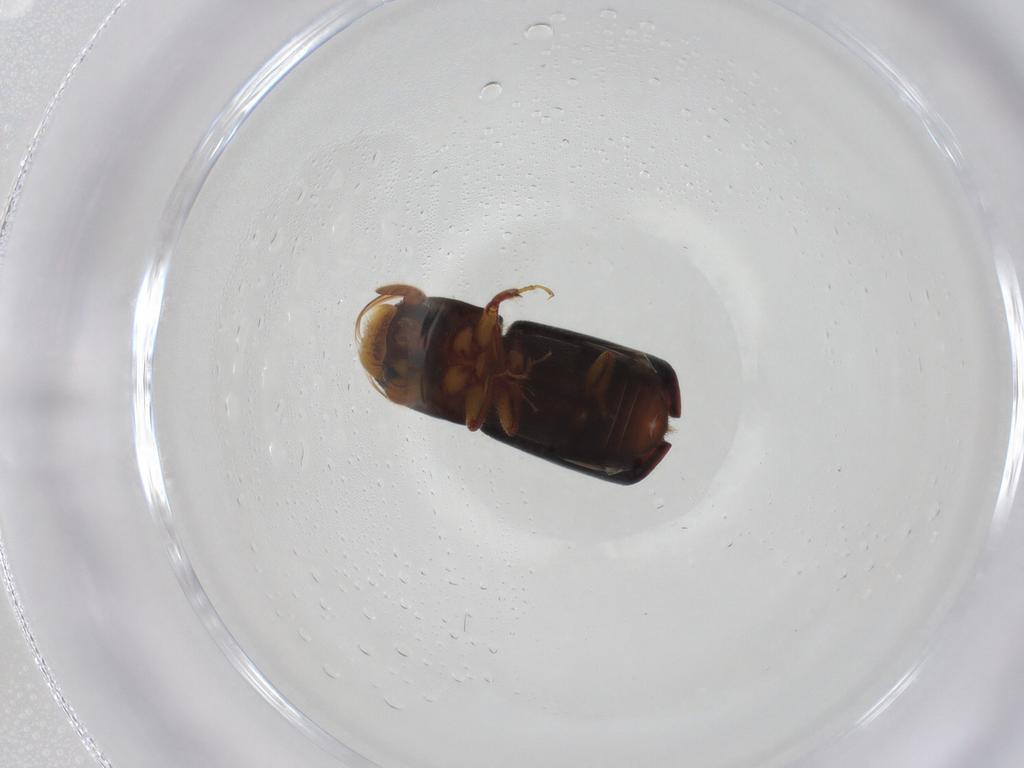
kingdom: Animalia
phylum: Arthropoda
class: Insecta
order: Coleoptera
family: Curculionidae
